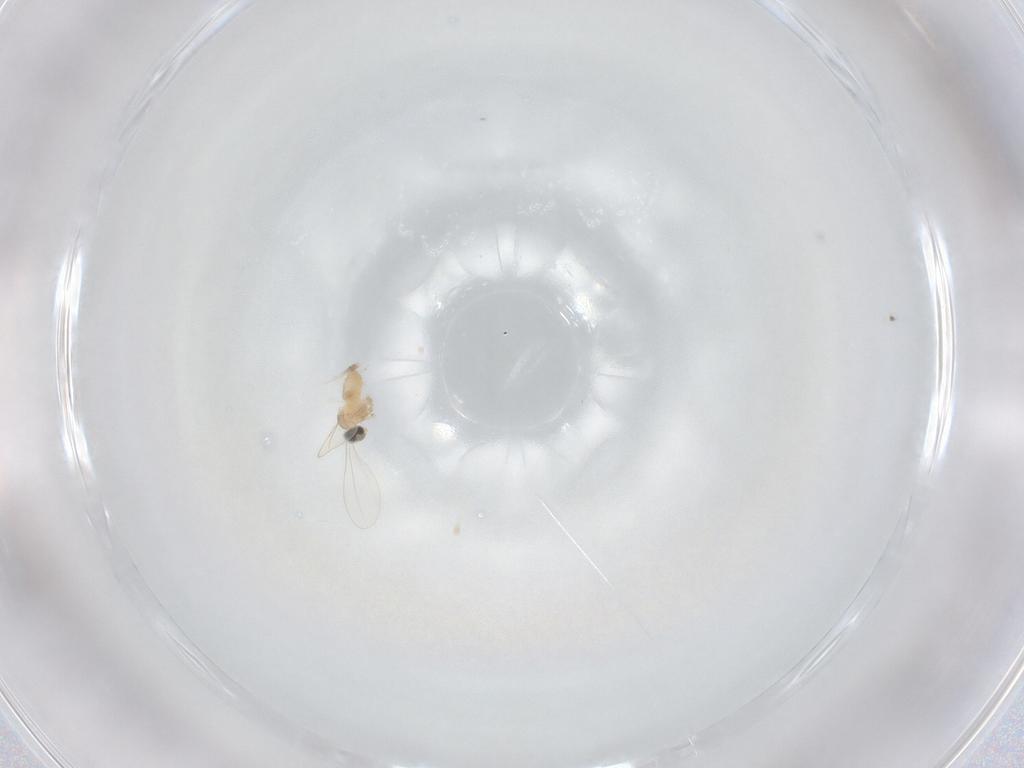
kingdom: Animalia
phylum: Arthropoda
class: Insecta
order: Diptera
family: Cecidomyiidae
